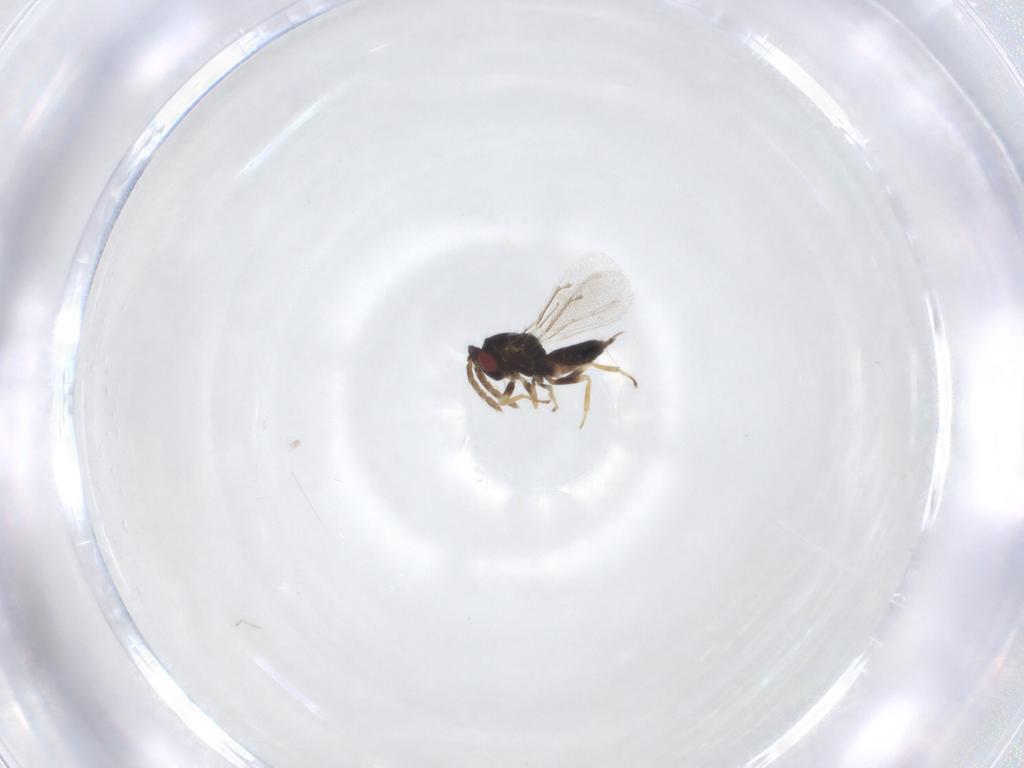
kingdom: Animalia
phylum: Arthropoda
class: Insecta
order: Hymenoptera
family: Eulophidae
